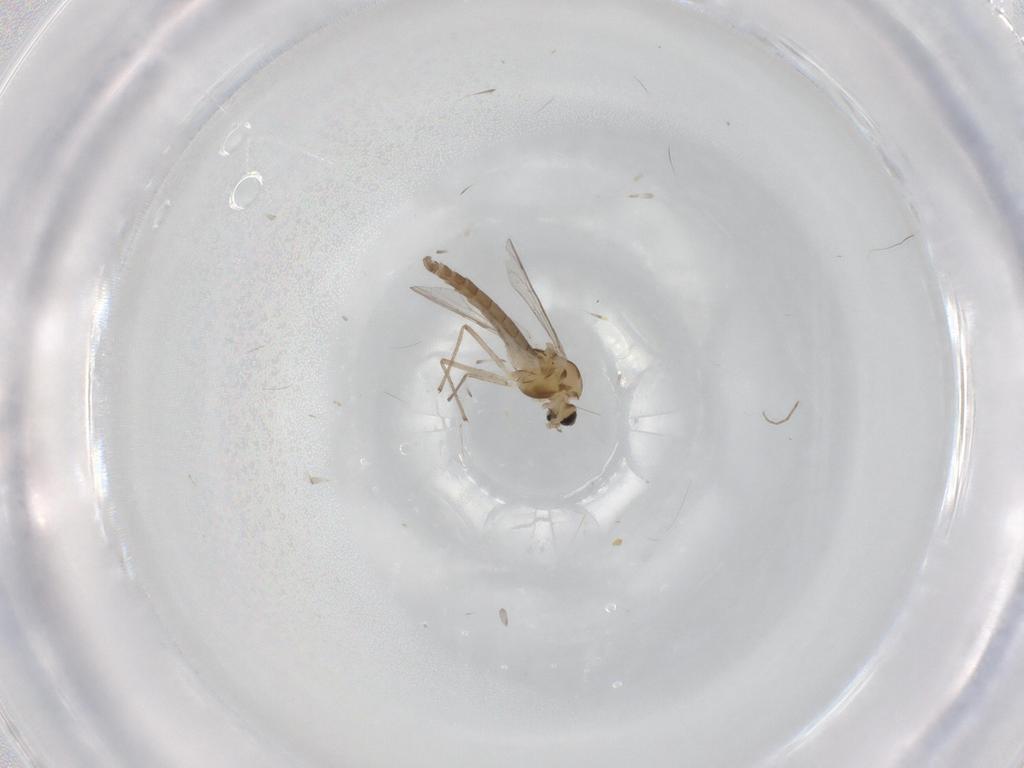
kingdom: Animalia
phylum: Arthropoda
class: Insecta
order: Diptera
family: Chironomidae
